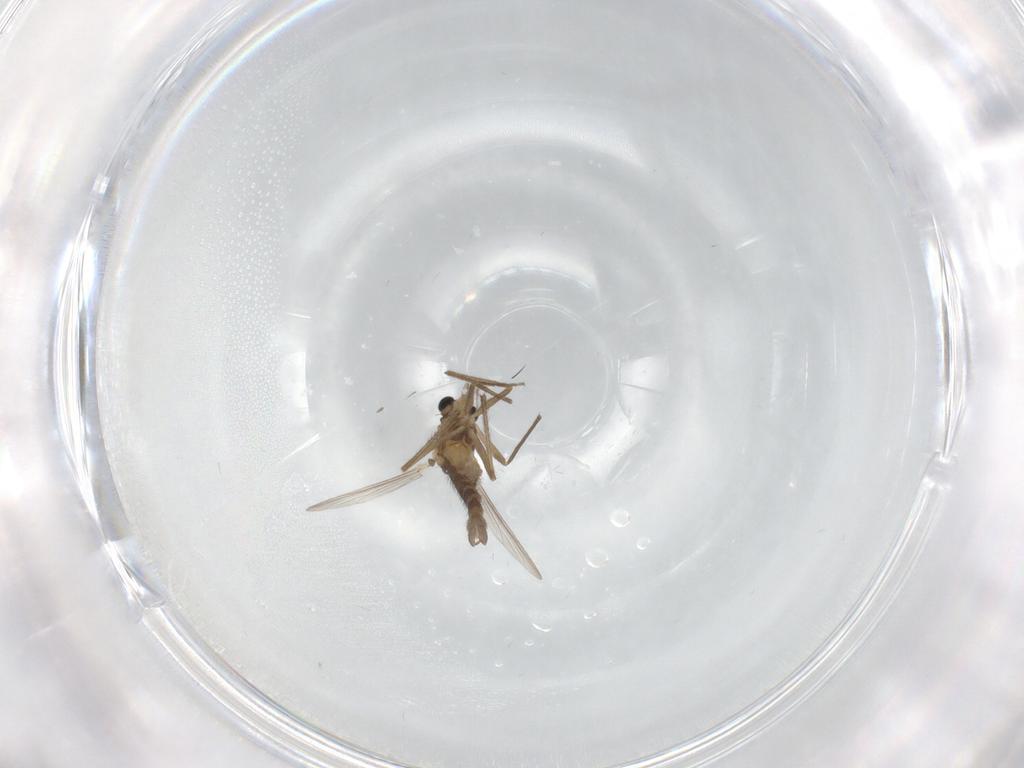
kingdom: Animalia
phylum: Arthropoda
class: Insecta
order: Diptera
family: Chironomidae
